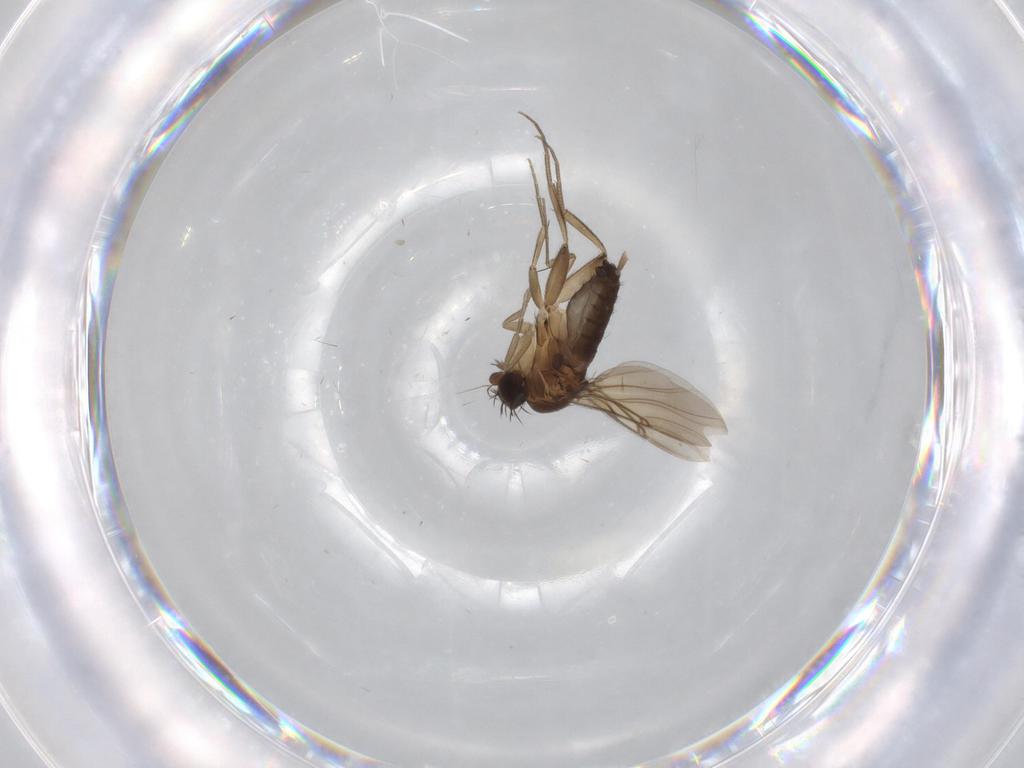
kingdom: Animalia
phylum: Arthropoda
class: Insecta
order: Diptera
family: Phoridae
